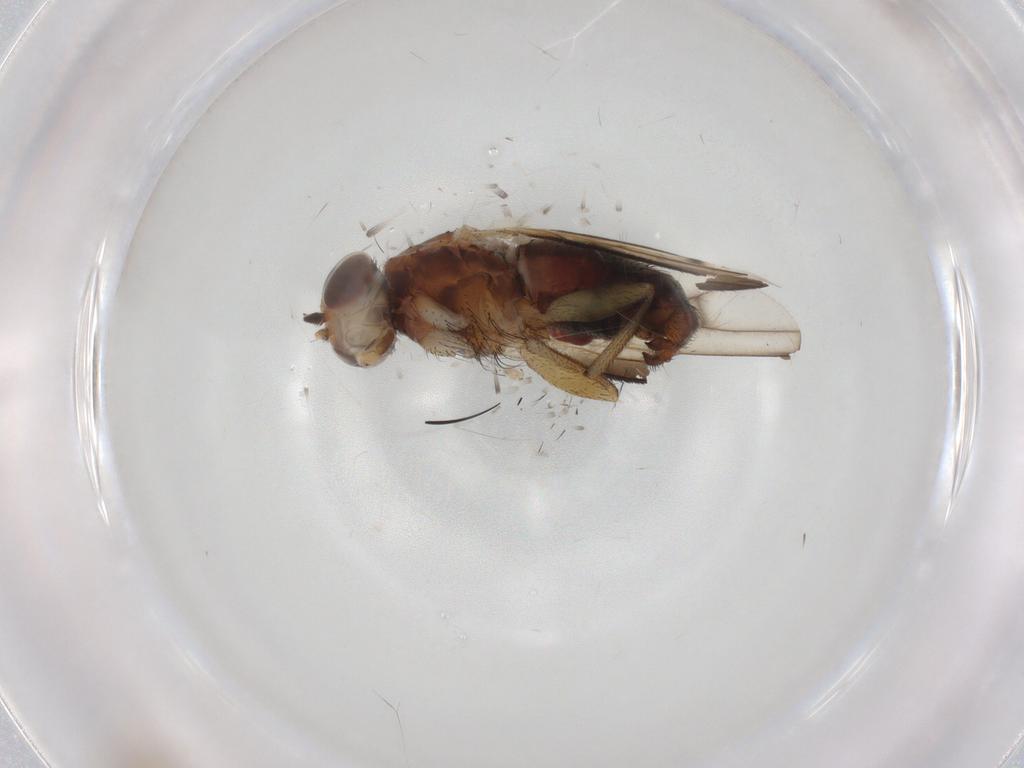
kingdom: Animalia
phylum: Arthropoda
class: Insecta
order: Diptera
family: Heleomyzidae
